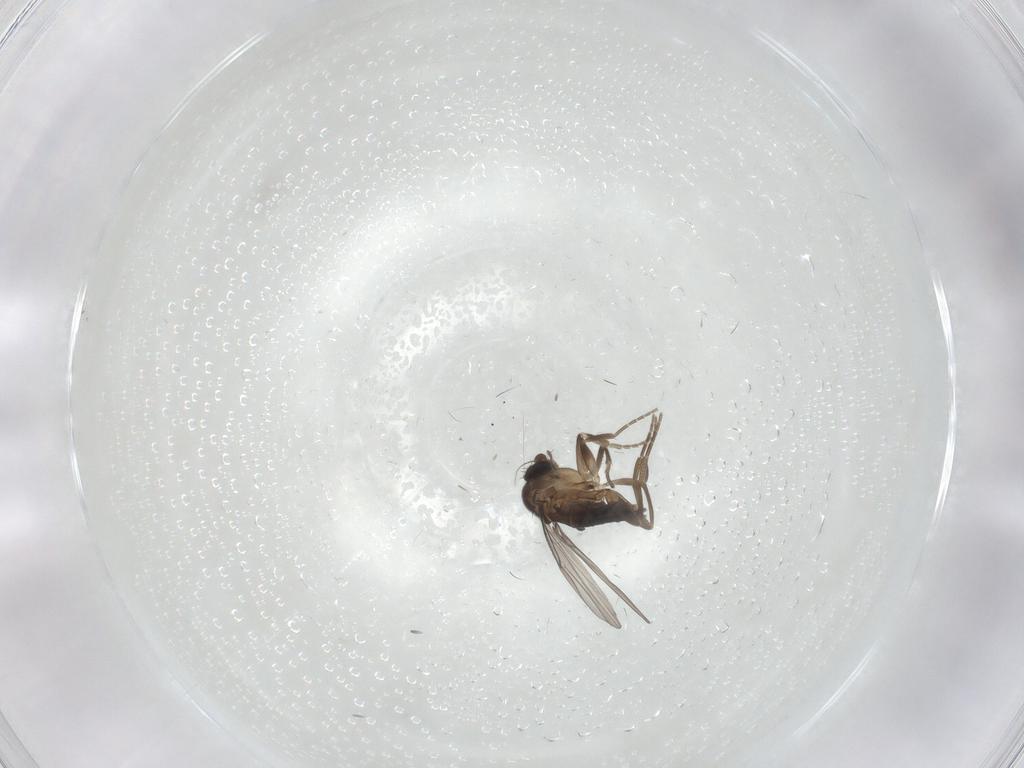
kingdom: Animalia
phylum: Arthropoda
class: Insecta
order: Diptera
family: Phoridae
